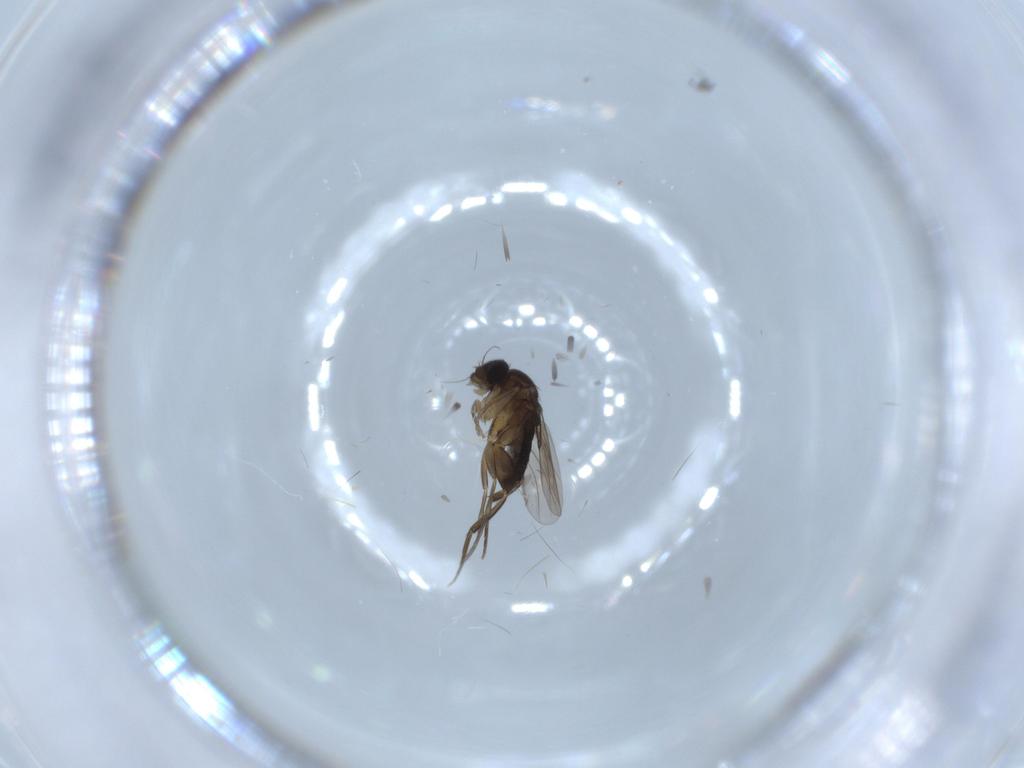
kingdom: Animalia
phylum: Arthropoda
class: Insecta
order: Diptera
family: Phoridae
